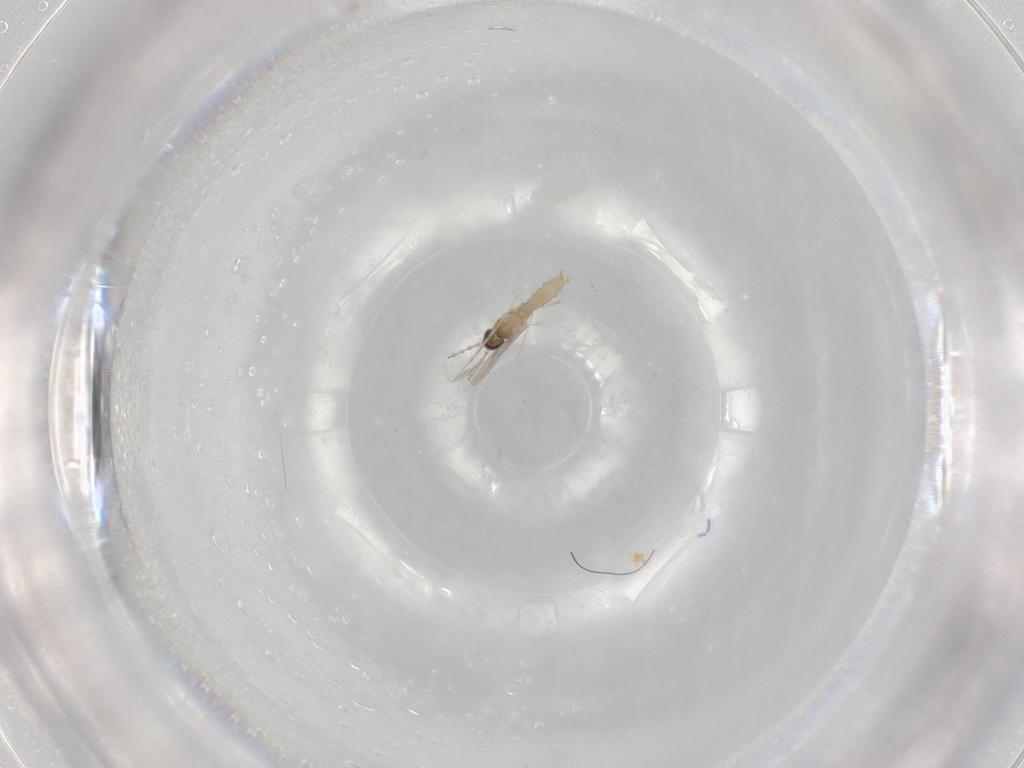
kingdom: Animalia
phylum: Arthropoda
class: Insecta
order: Diptera
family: Cecidomyiidae
